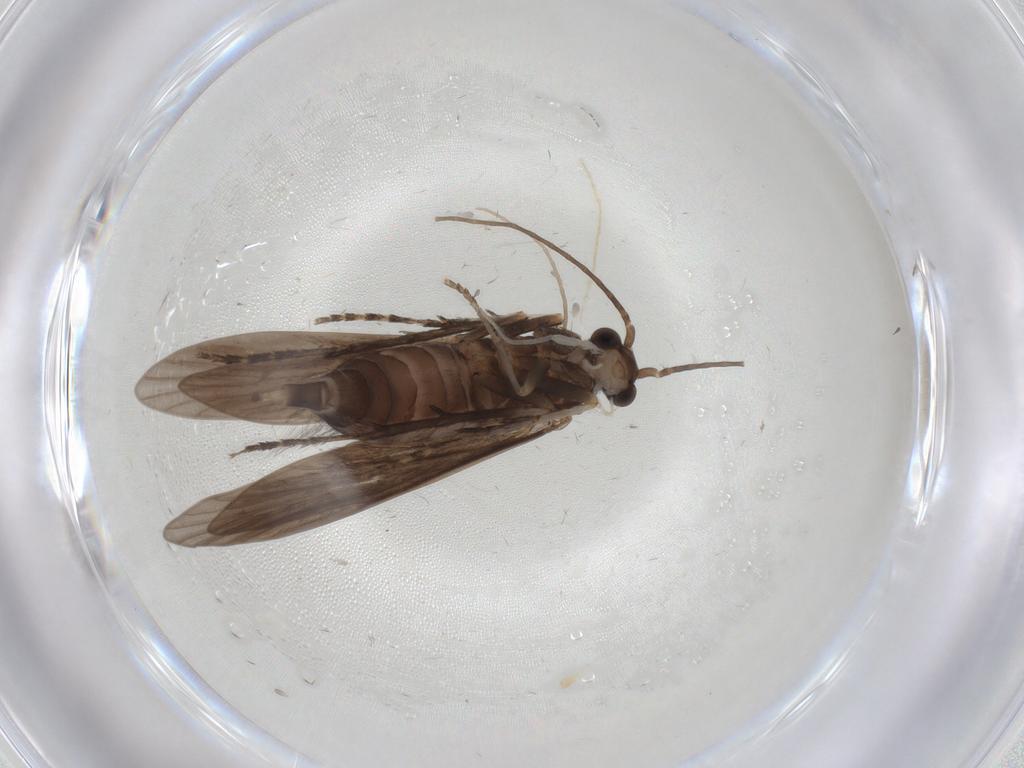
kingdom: Animalia
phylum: Arthropoda
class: Insecta
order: Trichoptera
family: Xiphocentronidae
